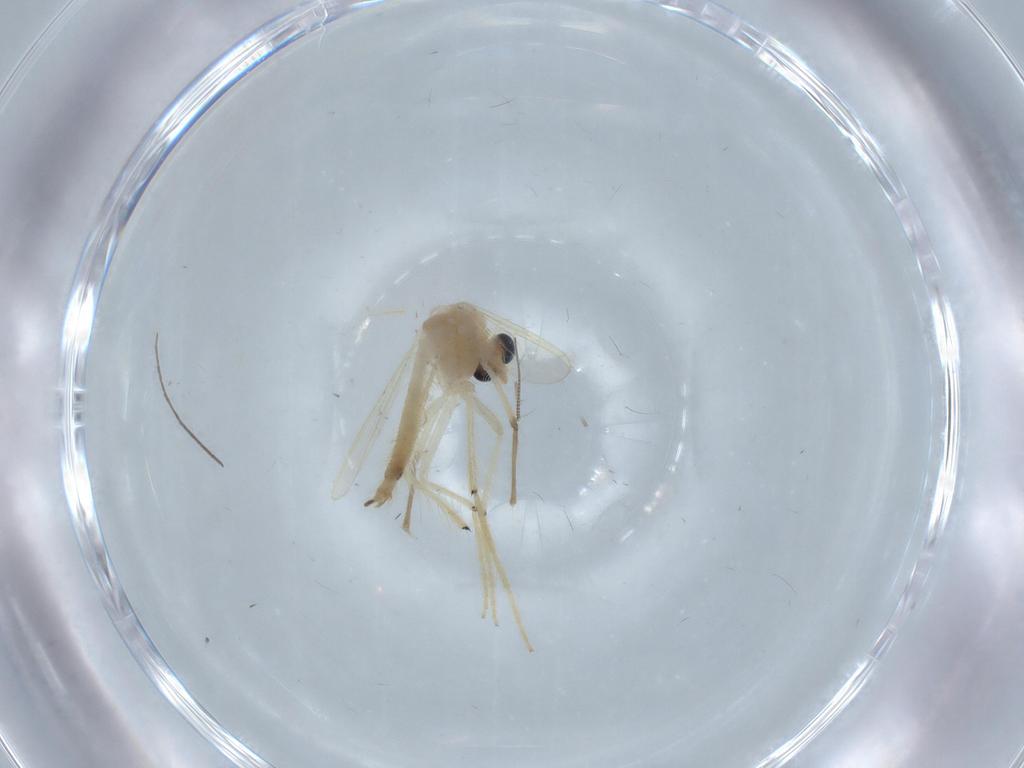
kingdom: Animalia
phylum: Arthropoda
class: Insecta
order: Diptera
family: Chironomidae
